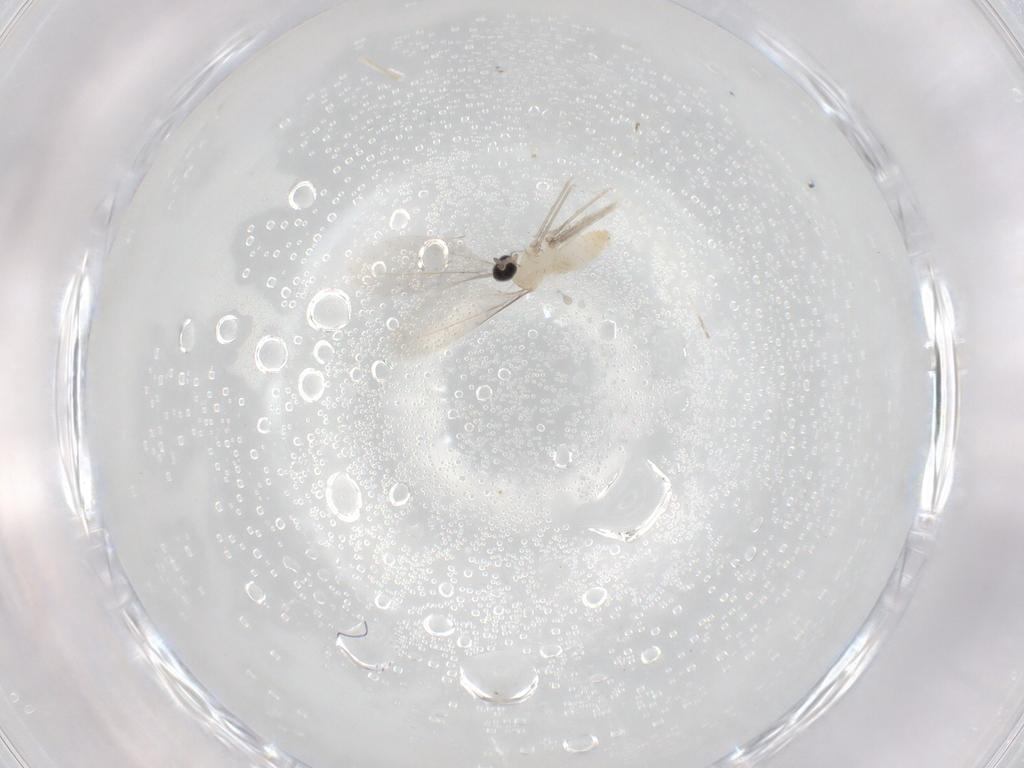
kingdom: Animalia
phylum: Arthropoda
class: Insecta
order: Diptera
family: Cecidomyiidae
